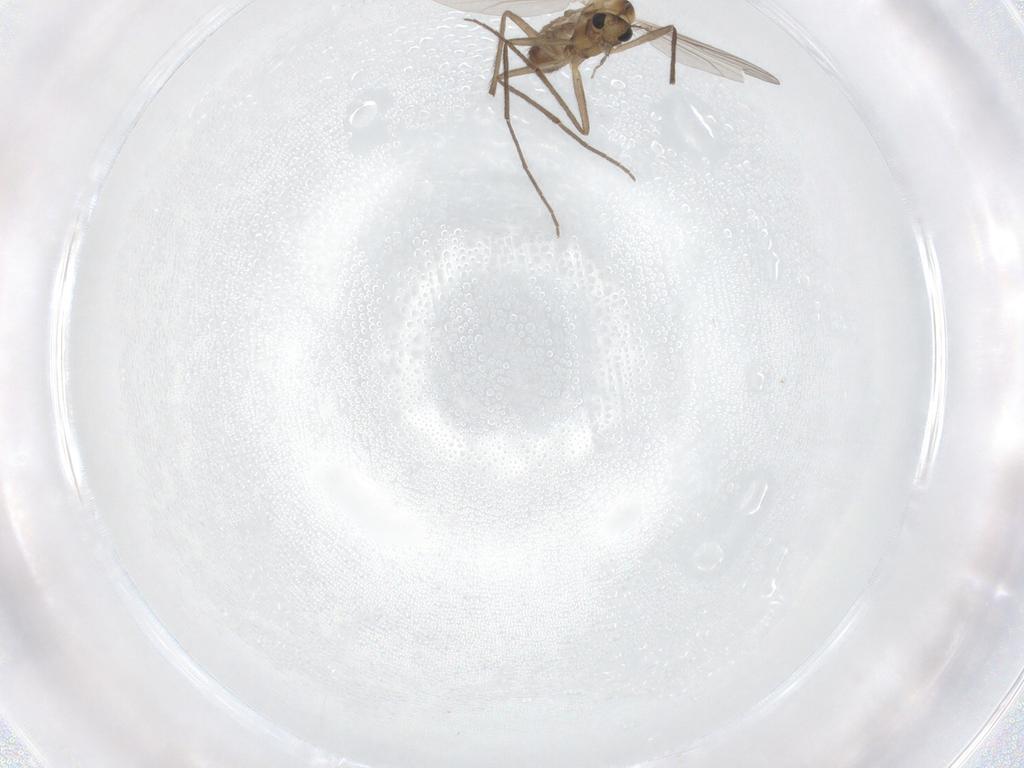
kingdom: Animalia
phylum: Arthropoda
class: Insecta
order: Diptera
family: Chironomidae
